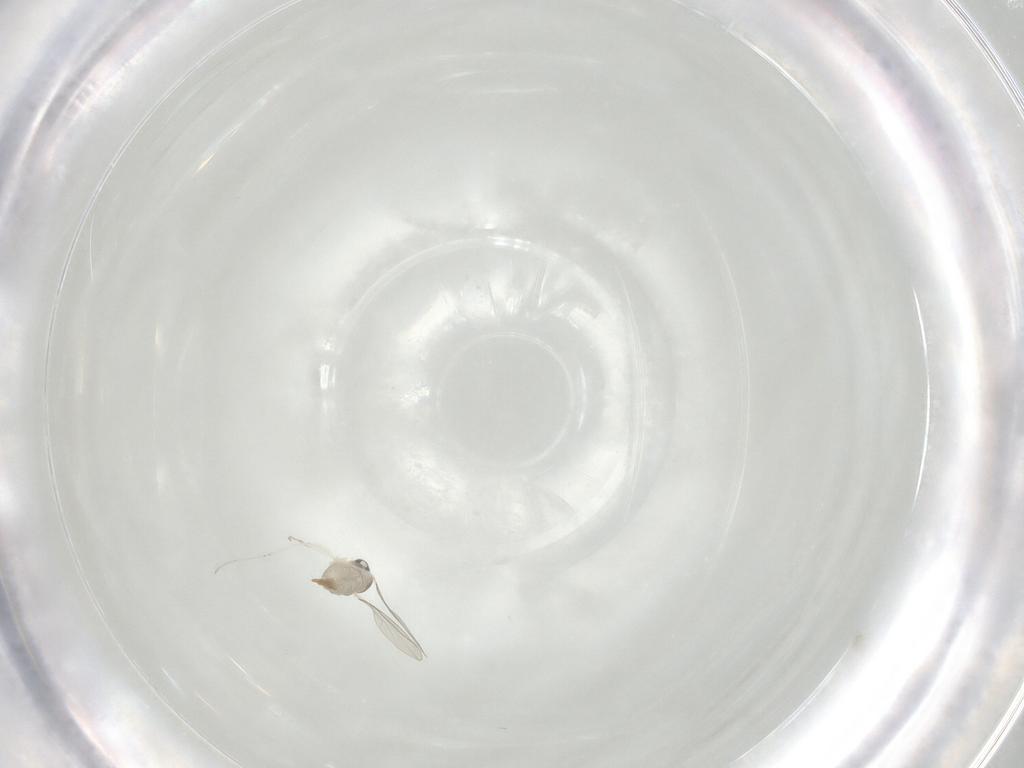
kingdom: Animalia
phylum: Arthropoda
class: Insecta
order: Diptera
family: Cecidomyiidae
